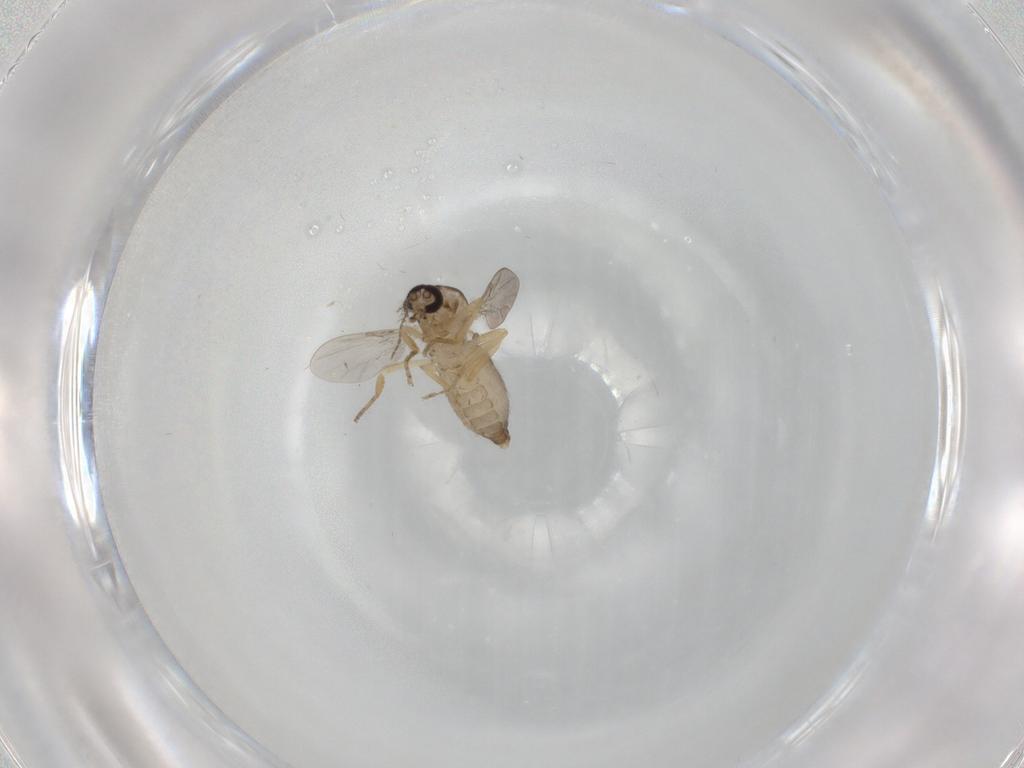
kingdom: Animalia
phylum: Arthropoda
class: Insecta
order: Diptera
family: Ceratopogonidae
